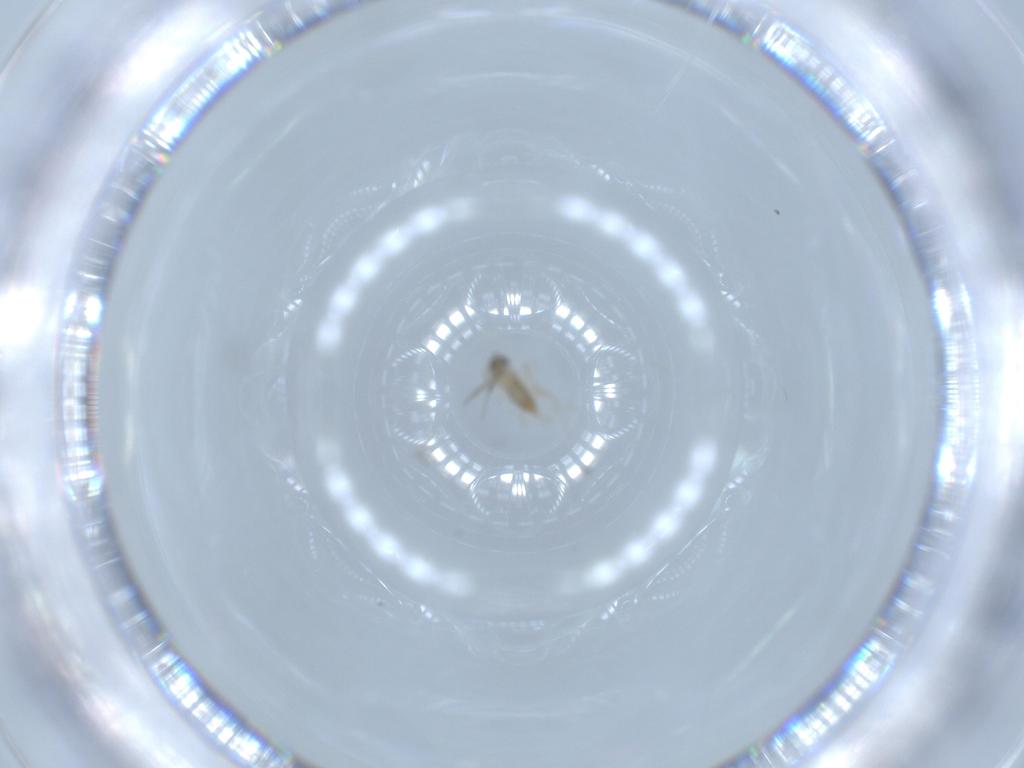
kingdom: Animalia
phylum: Arthropoda
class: Insecta
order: Diptera
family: Cecidomyiidae
